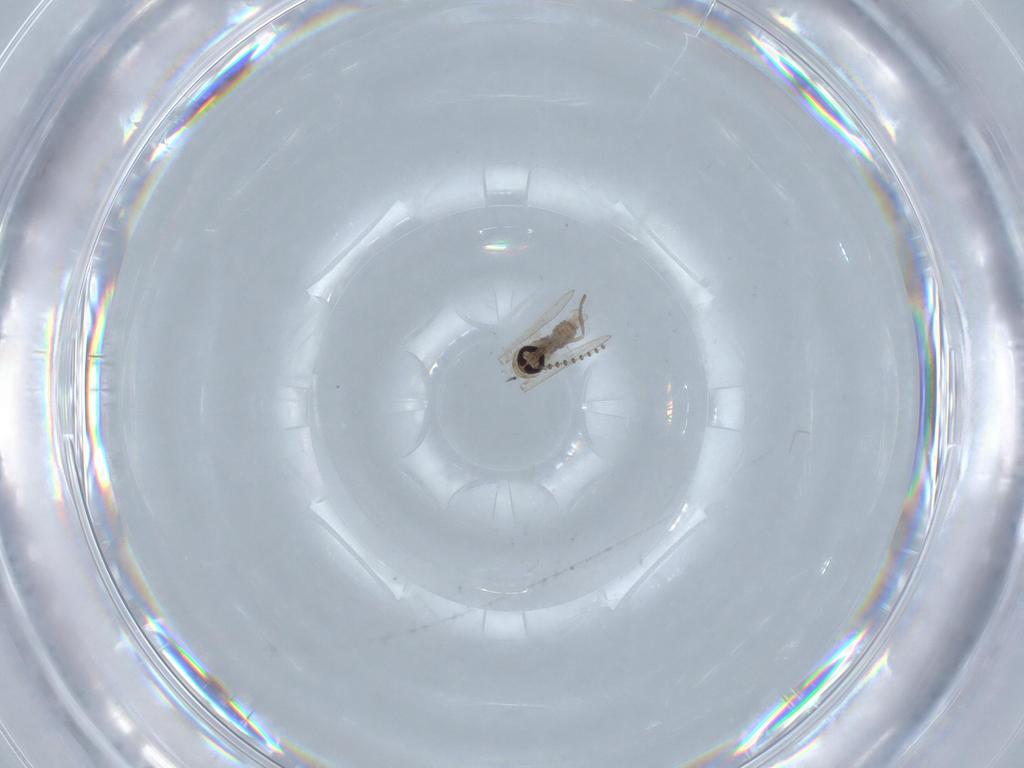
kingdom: Animalia
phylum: Arthropoda
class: Insecta
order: Diptera
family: Psychodidae
